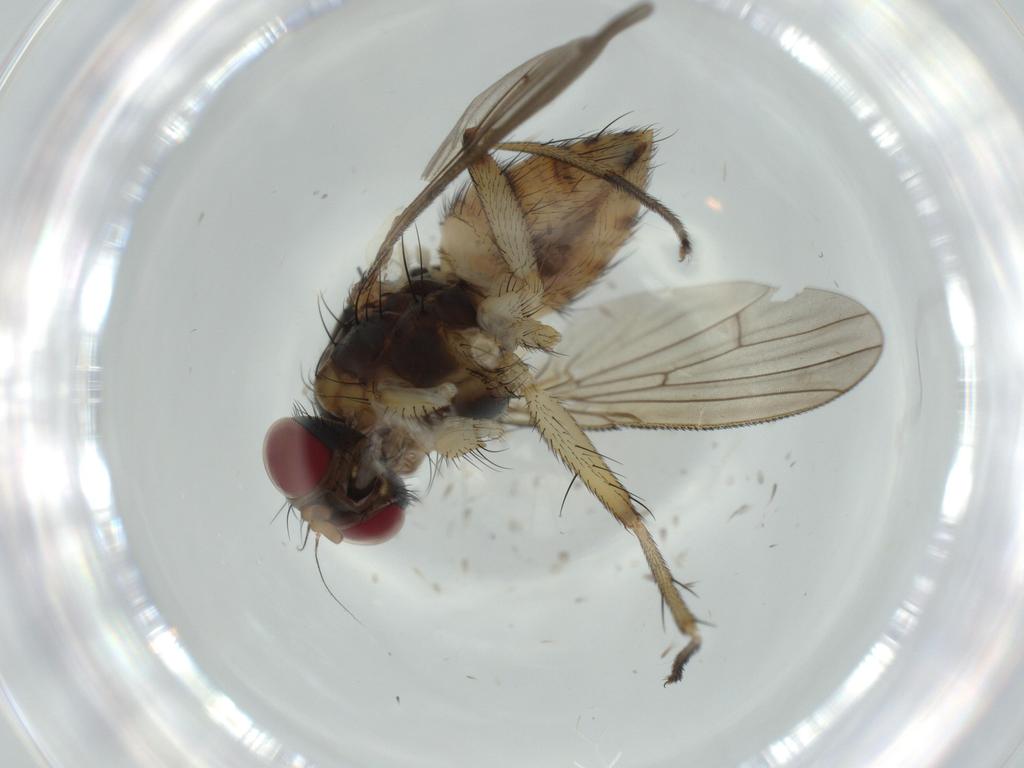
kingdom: Animalia
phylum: Arthropoda
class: Insecta
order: Diptera
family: Muscidae
